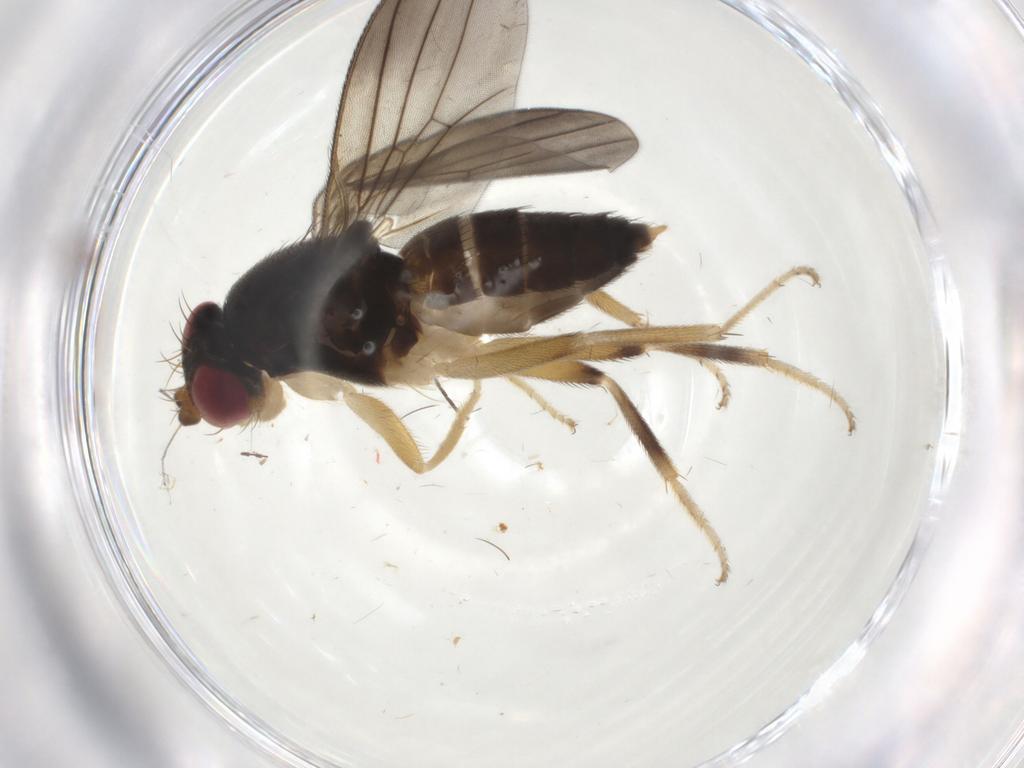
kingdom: Animalia
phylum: Arthropoda
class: Insecta
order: Diptera
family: Clusiidae
